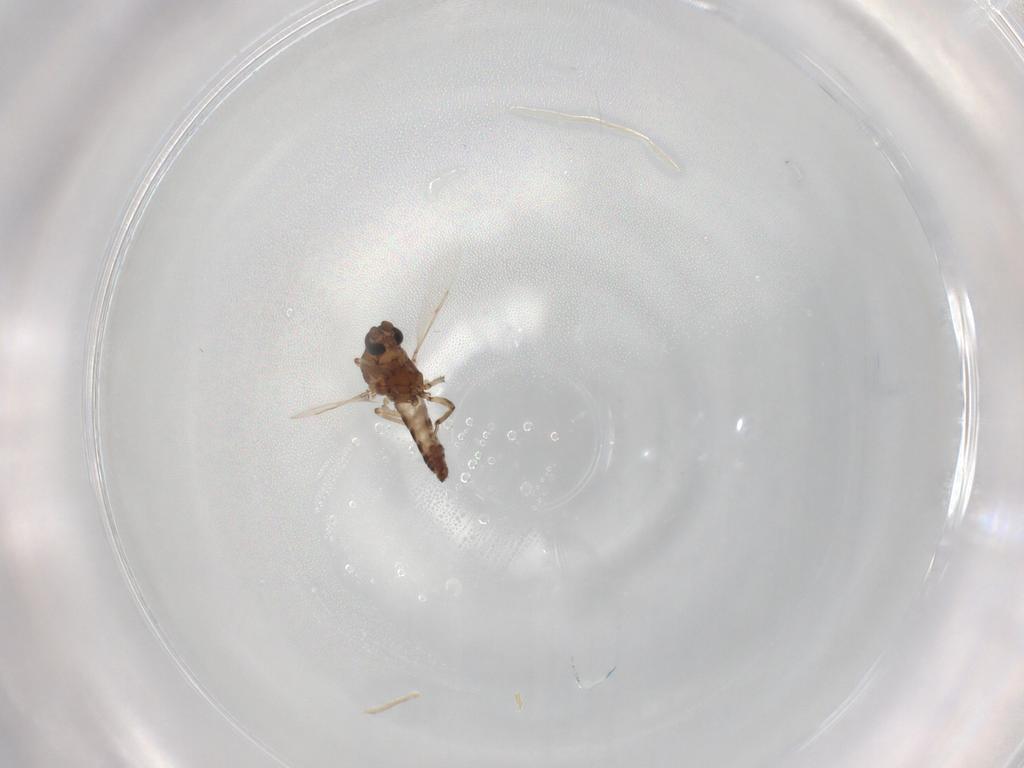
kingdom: Animalia
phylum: Arthropoda
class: Insecta
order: Diptera
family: Ceratopogonidae
